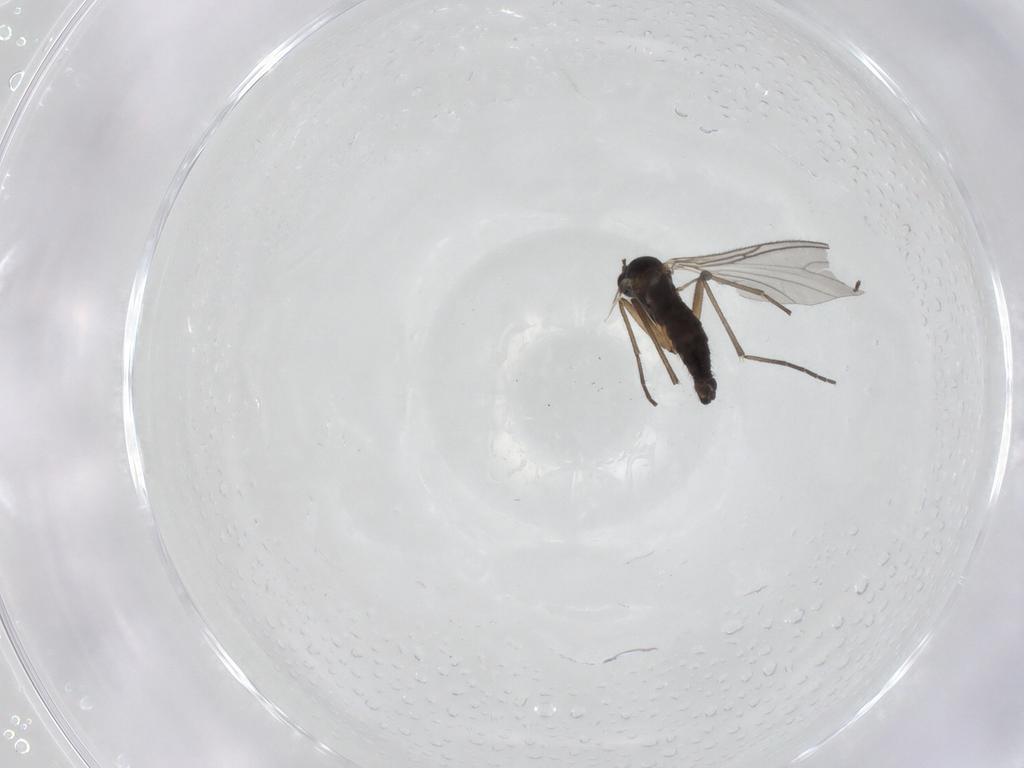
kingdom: Animalia
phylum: Arthropoda
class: Insecta
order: Diptera
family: Sciaridae
